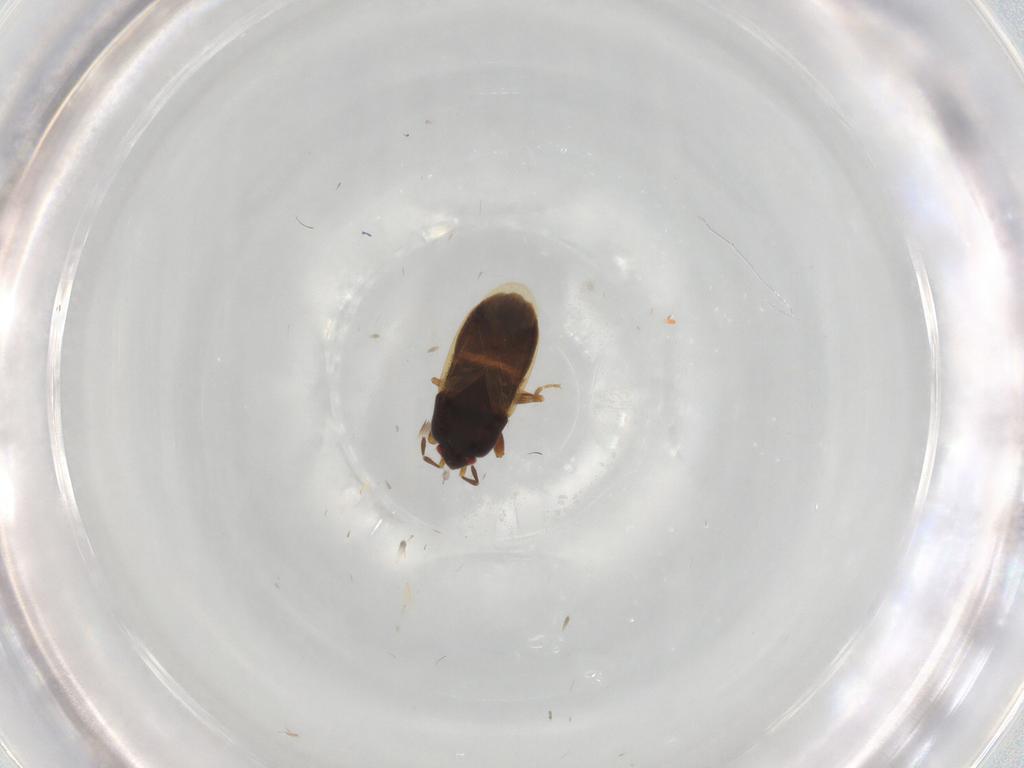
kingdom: Animalia
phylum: Arthropoda
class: Insecta
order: Hemiptera
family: Rhyparochromidae
